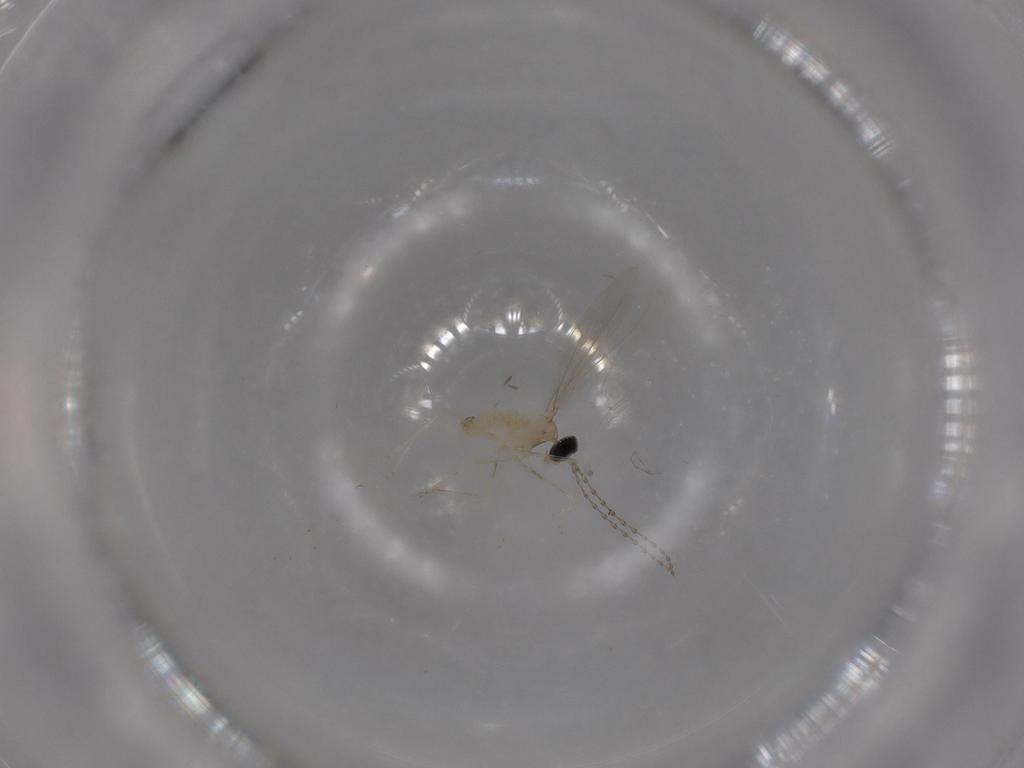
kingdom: Animalia
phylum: Arthropoda
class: Insecta
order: Diptera
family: Cecidomyiidae
